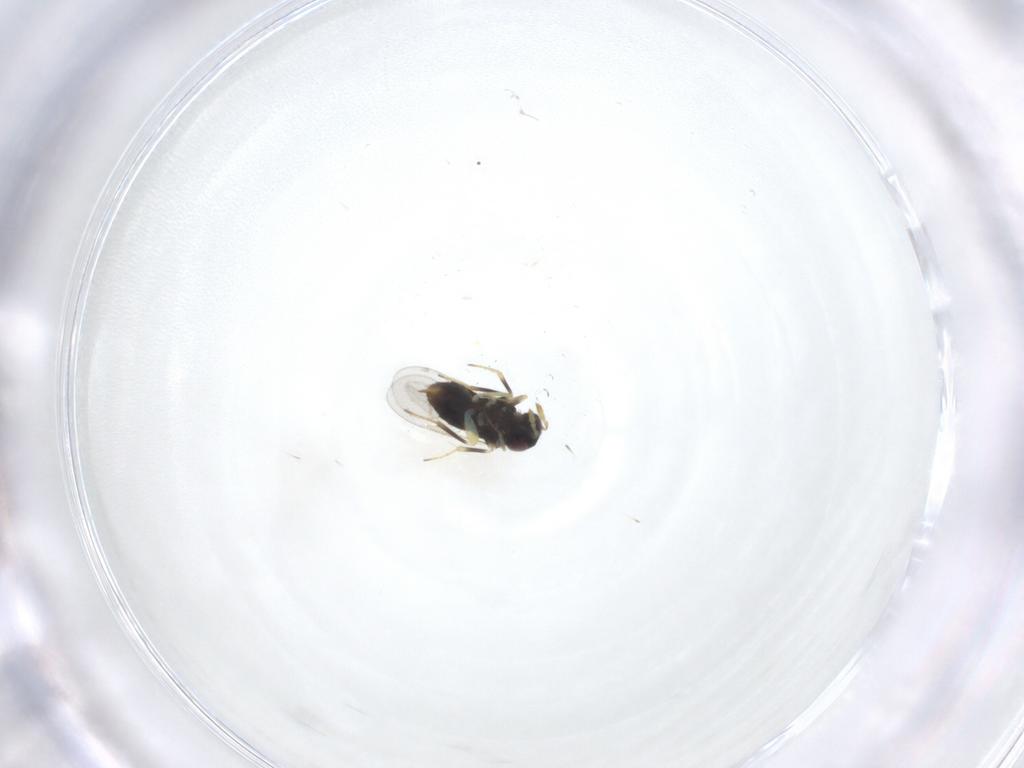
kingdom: Animalia
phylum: Arthropoda
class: Insecta
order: Hymenoptera
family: Aphelinidae
